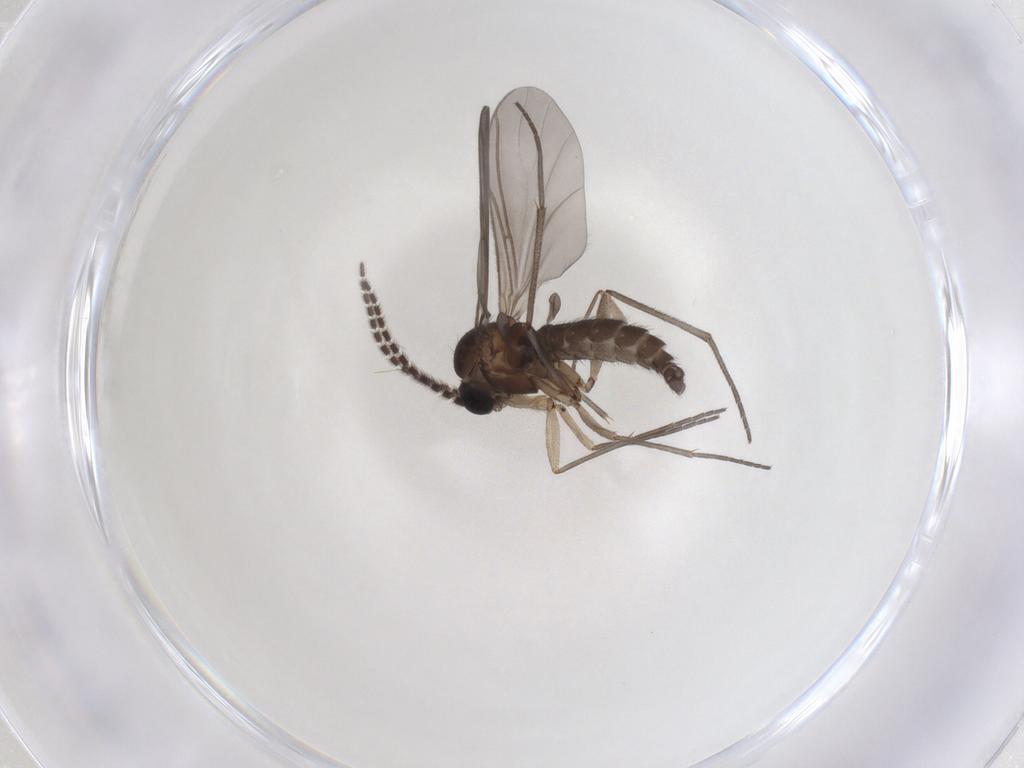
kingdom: Animalia
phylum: Arthropoda
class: Insecta
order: Diptera
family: Sciaridae
